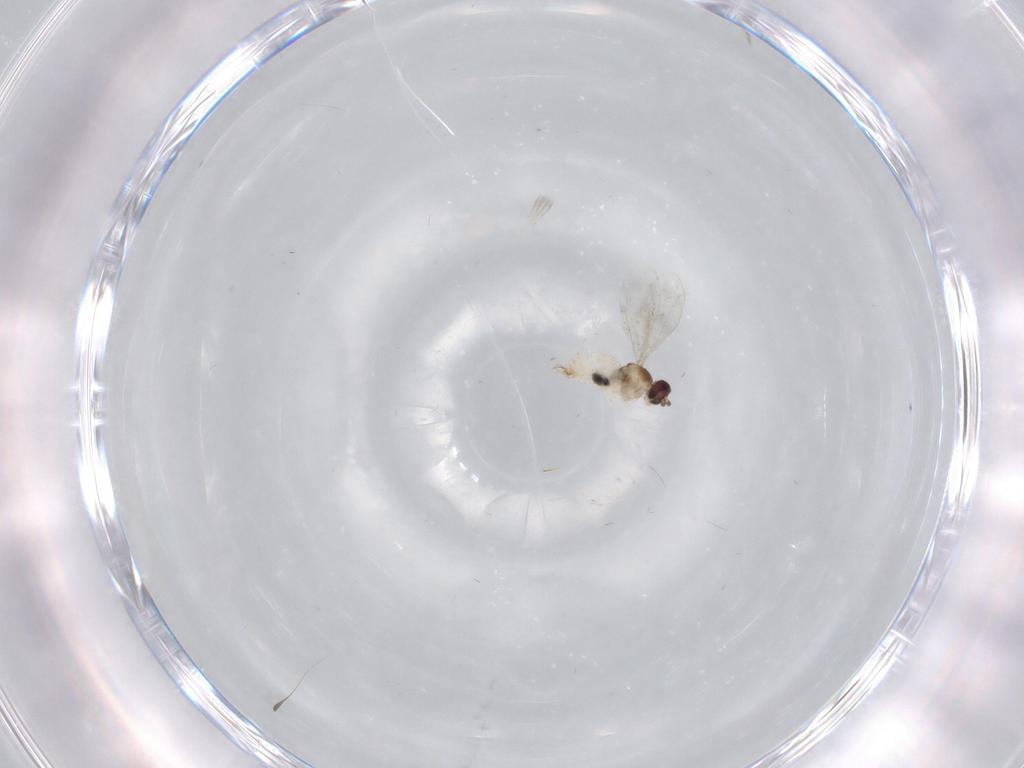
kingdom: Animalia
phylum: Arthropoda
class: Insecta
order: Diptera
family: Cecidomyiidae
